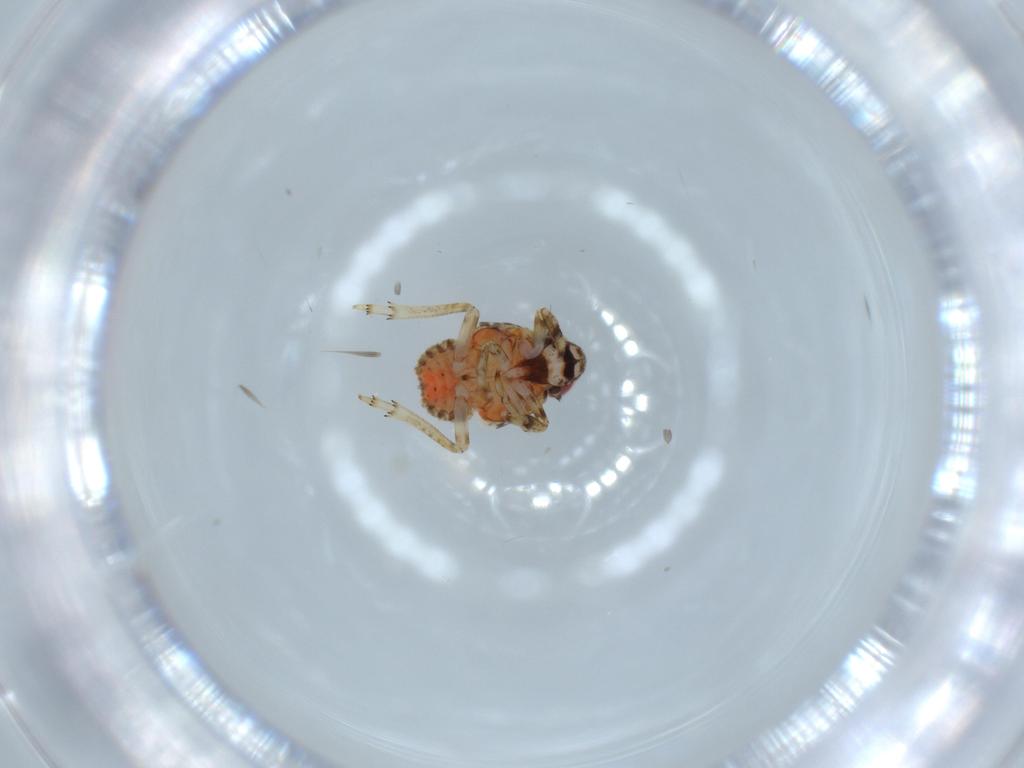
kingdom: Animalia
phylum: Arthropoda
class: Insecta
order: Hemiptera
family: Issidae
